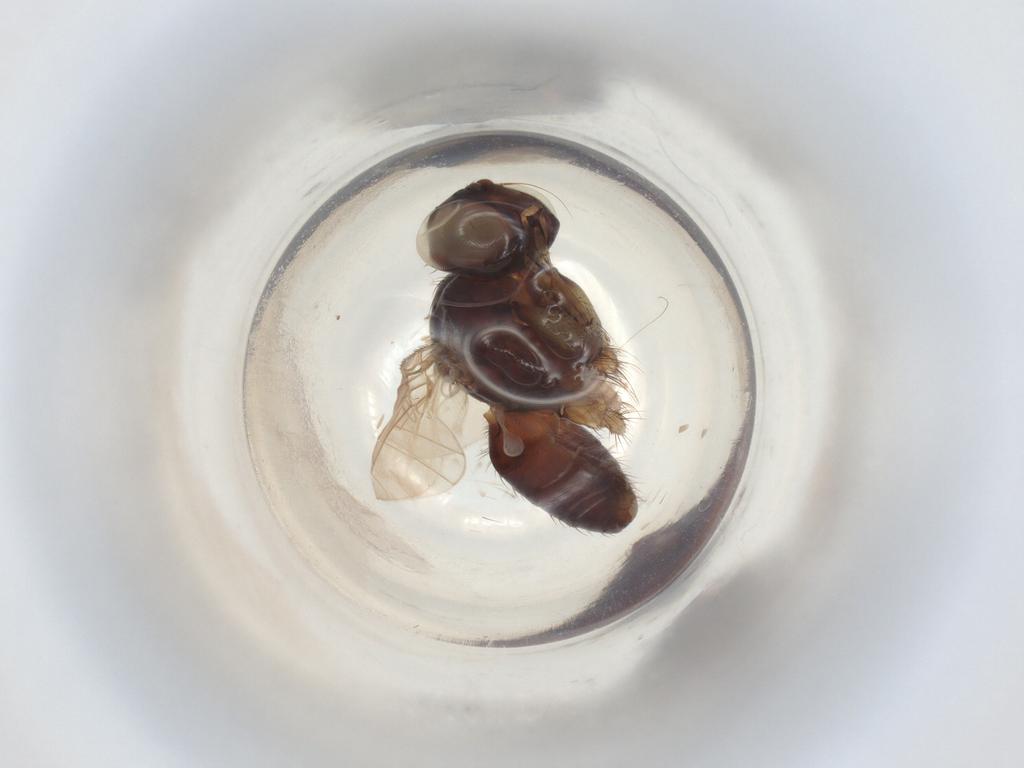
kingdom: Animalia
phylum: Arthropoda
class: Insecta
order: Diptera
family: Muscidae
